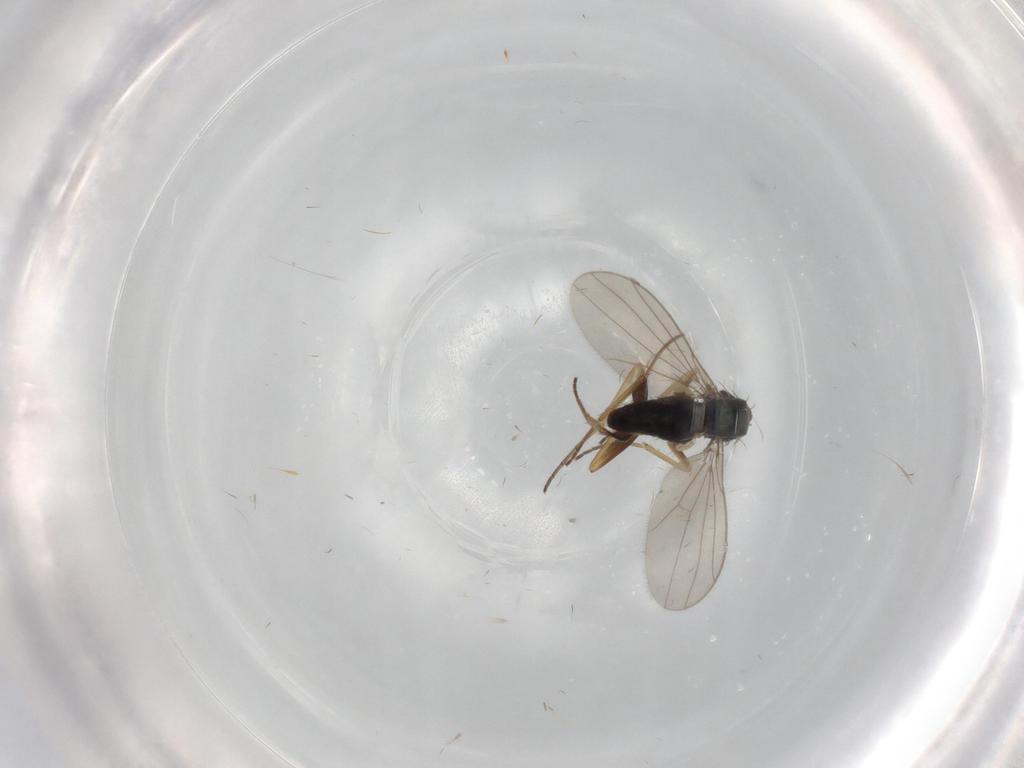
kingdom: Animalia
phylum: Arthropoda
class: Insecta
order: Diptera
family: Dolichopodidae
